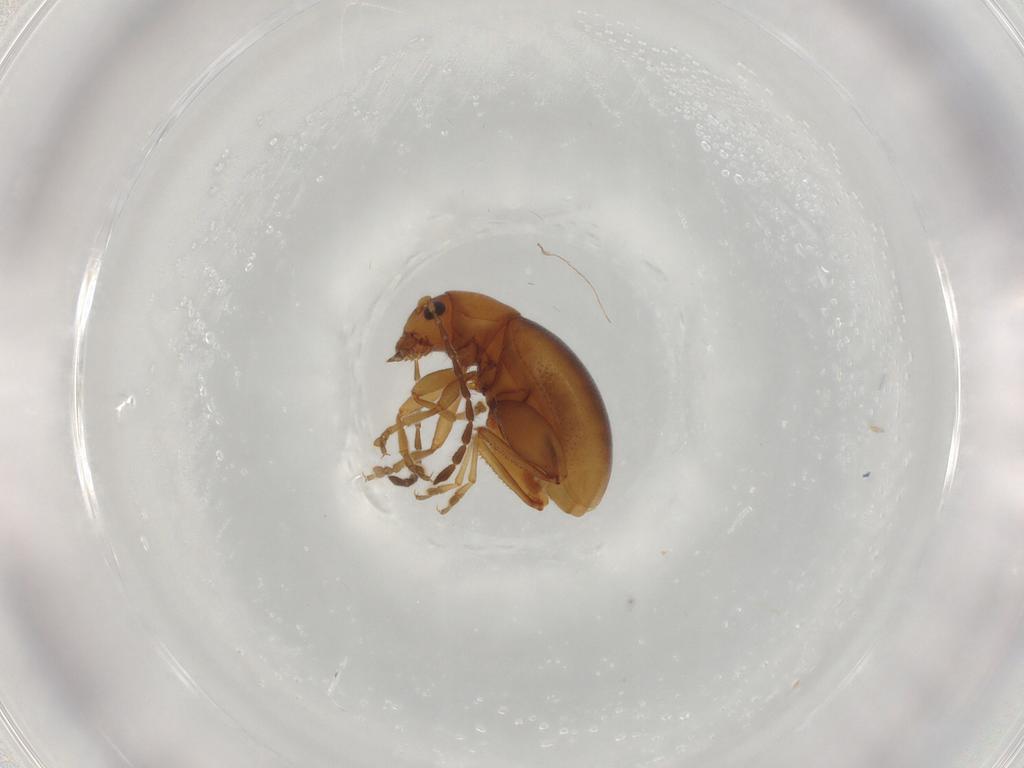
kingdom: Animalia
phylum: Arthropoda
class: Insecta
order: Coleoptera
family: Chrysomelidae
